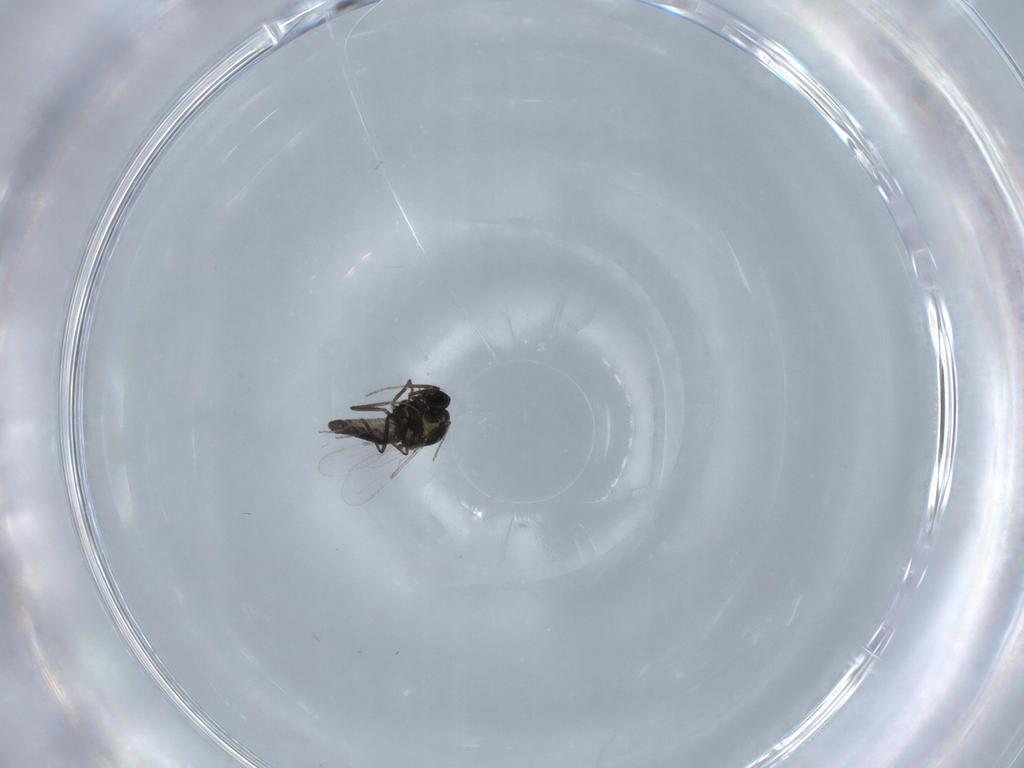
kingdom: Animalia
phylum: Arthropoda
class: Insecta
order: Diptera
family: Ceratopogonidae
